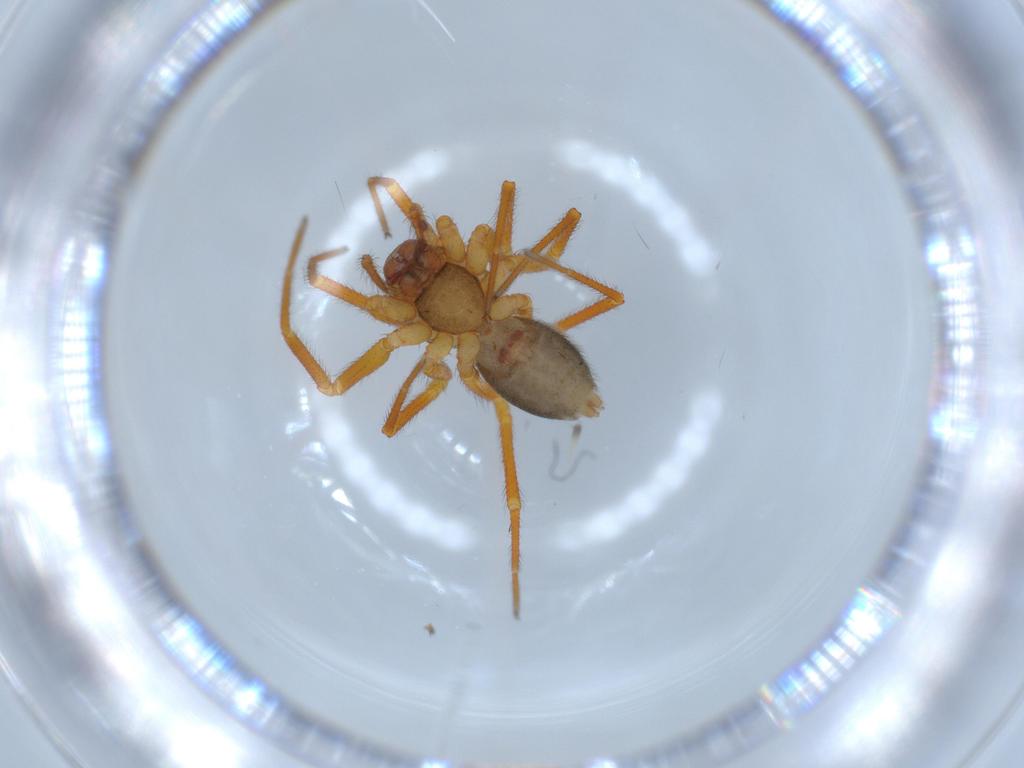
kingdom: Animalia
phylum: Arthropoda
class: Arachnida
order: Araneae
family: Linyphiidae
